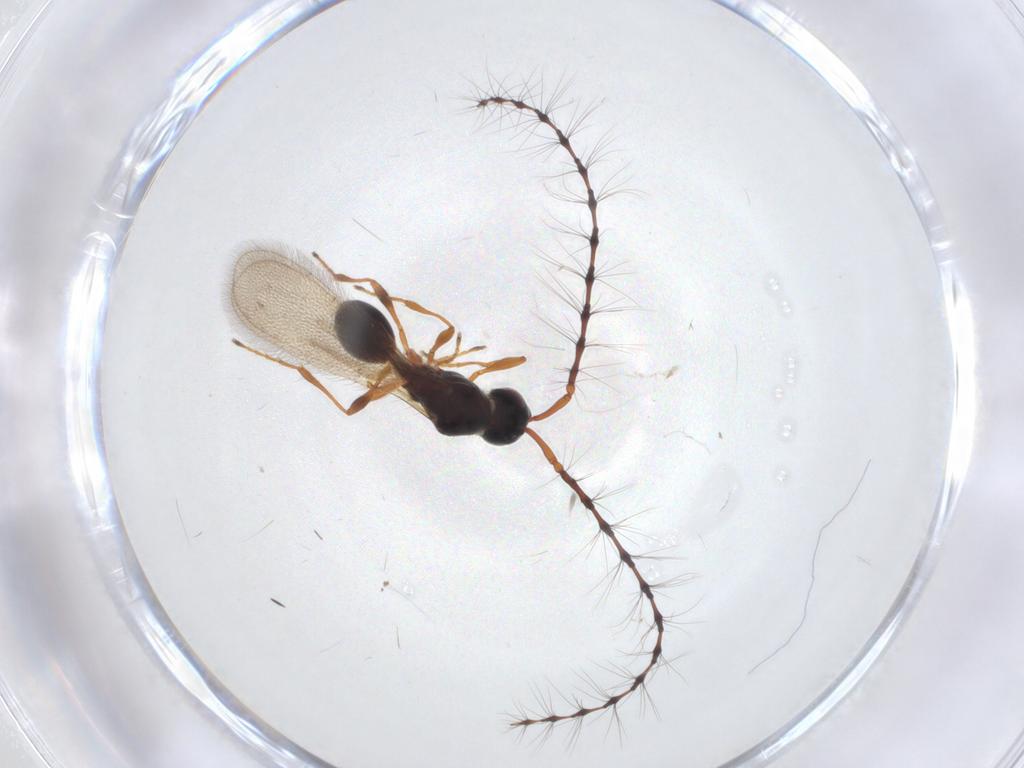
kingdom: Animalia
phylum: Arthropoda
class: Insecta
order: Hymenoptera
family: Diapriidae
